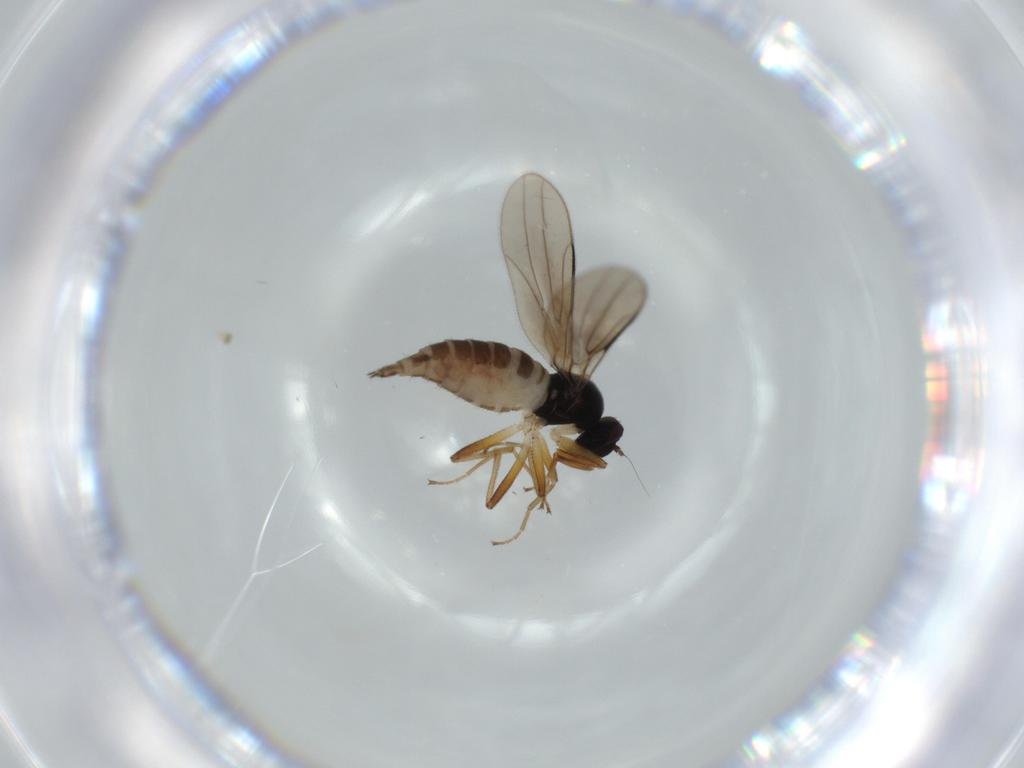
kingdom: Animalia
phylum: Arthropoda
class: Insecta
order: Diptera
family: Hybotidae
